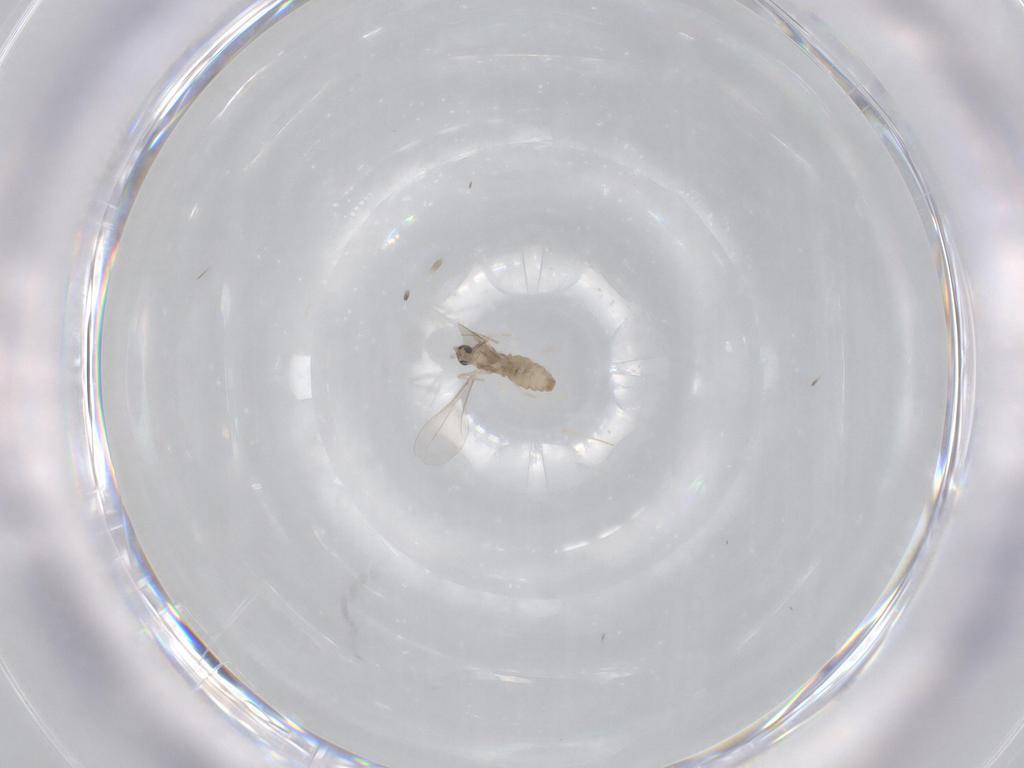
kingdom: Animalia
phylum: Arthropoda
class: Insecta
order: Diptera
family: Cecidomyiidae
